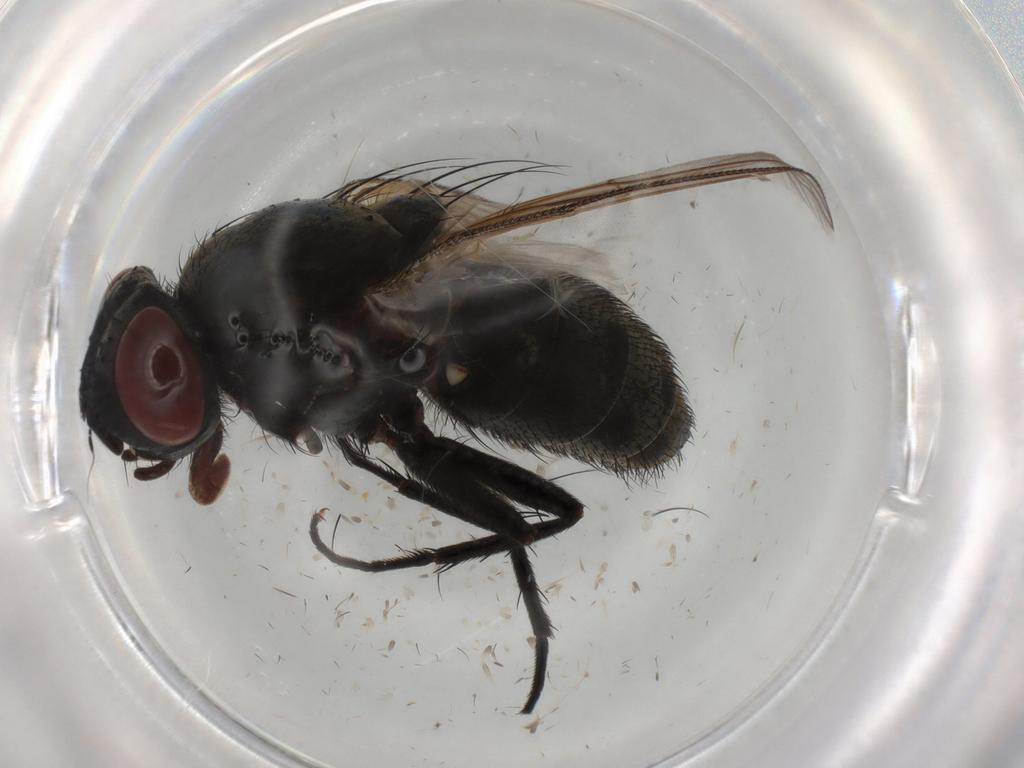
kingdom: Animalia
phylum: Arthropoda
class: Insecta
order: Diptera
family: Sarcophagidae
